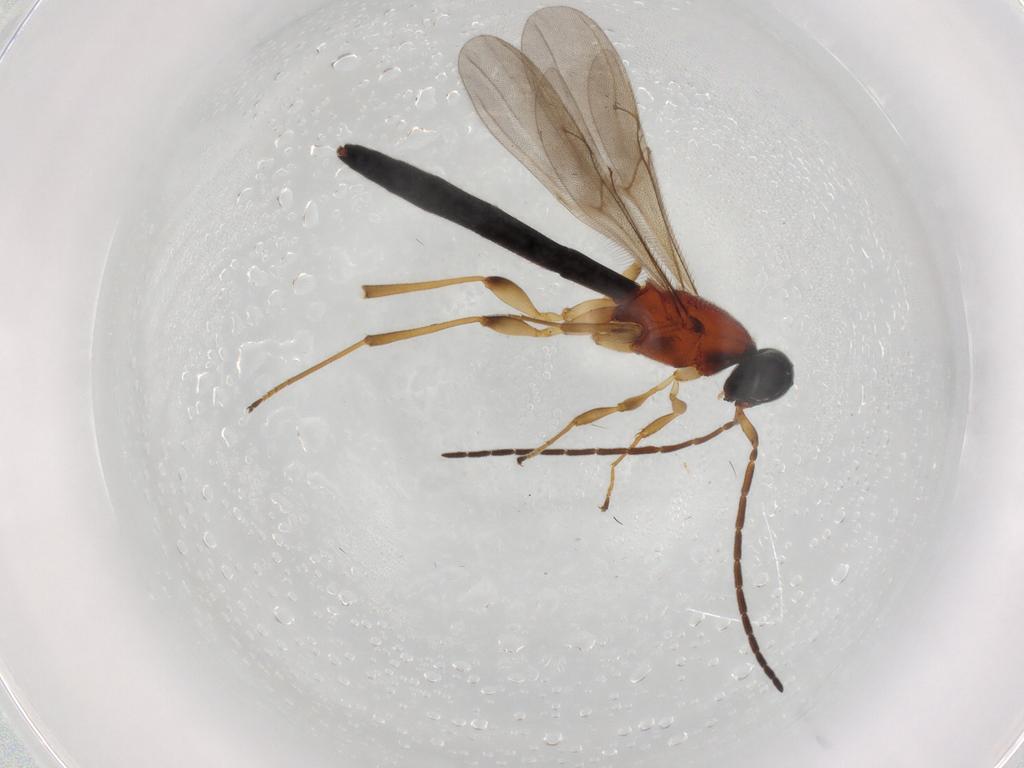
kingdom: Animalia
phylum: Arthropoda
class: Insecta
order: Hymenoptera
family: Scelionidae
